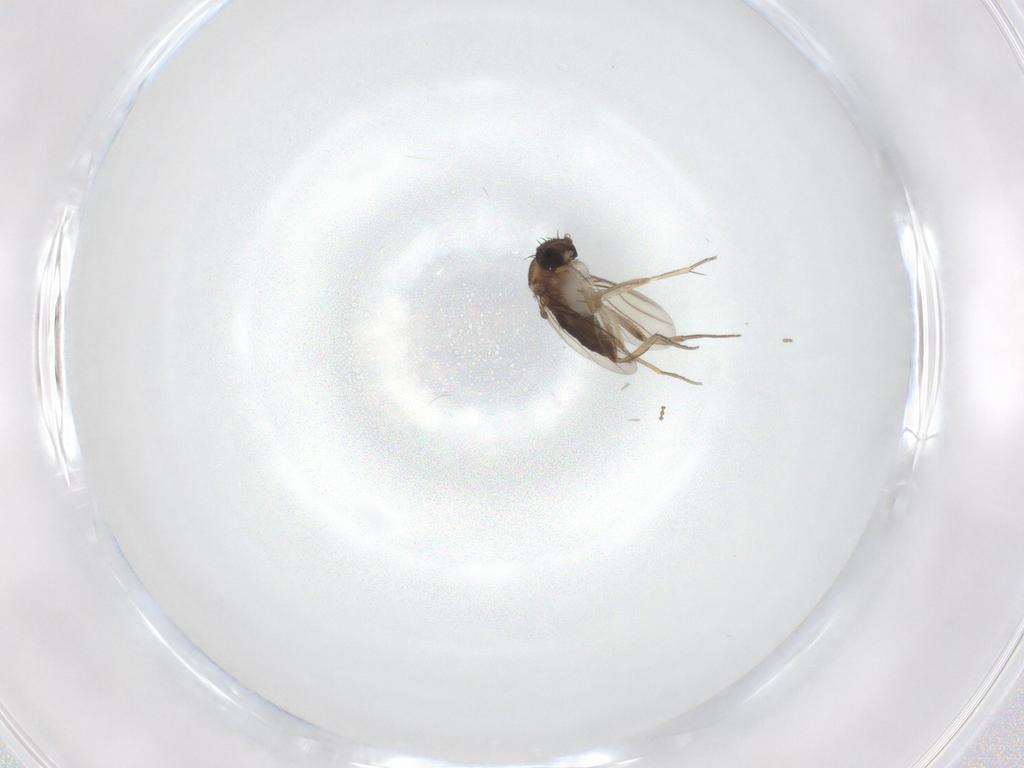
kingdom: Animalia
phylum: Arthropoda
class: Insecta
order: Diptera
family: Phoridae
